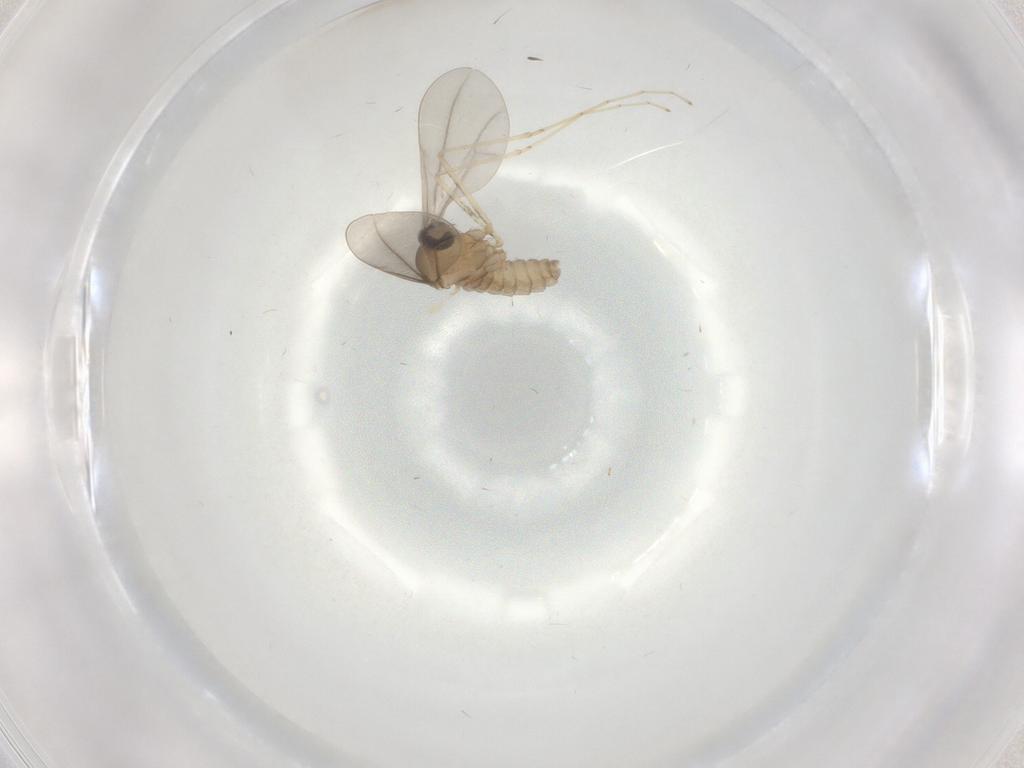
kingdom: Animalia
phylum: Arthropoda
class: Insecta
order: Diptera
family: Cecidomyiidae
